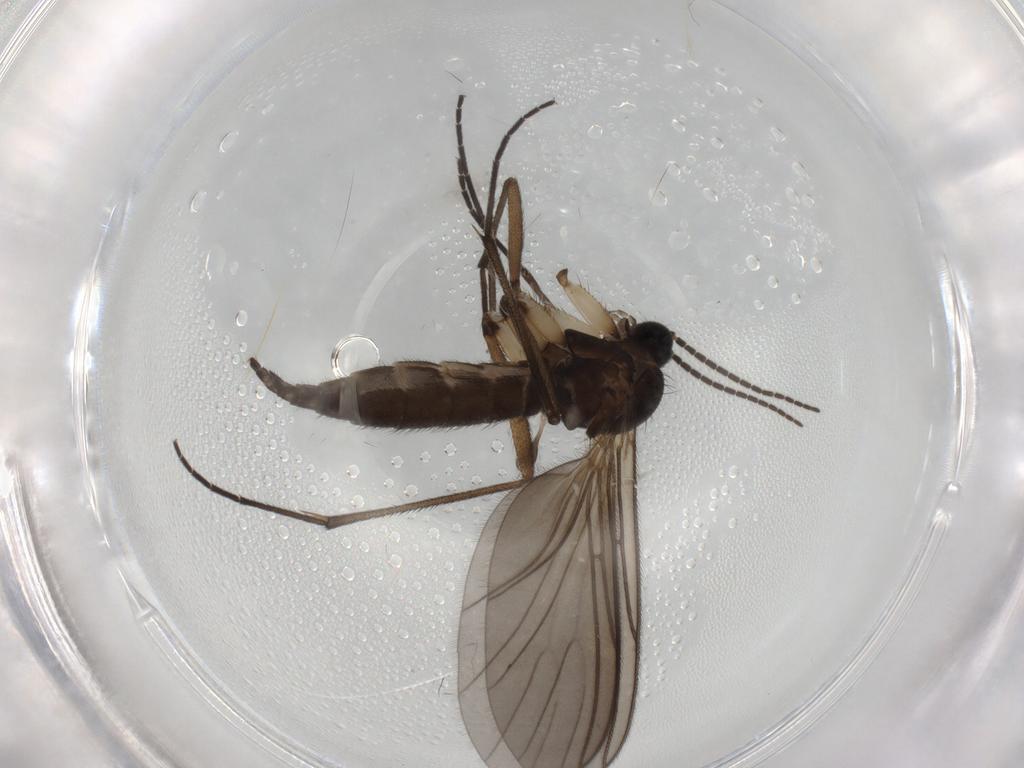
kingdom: Animalia
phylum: Arthropoda
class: Insecta
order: Diptera
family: Sciaridae
